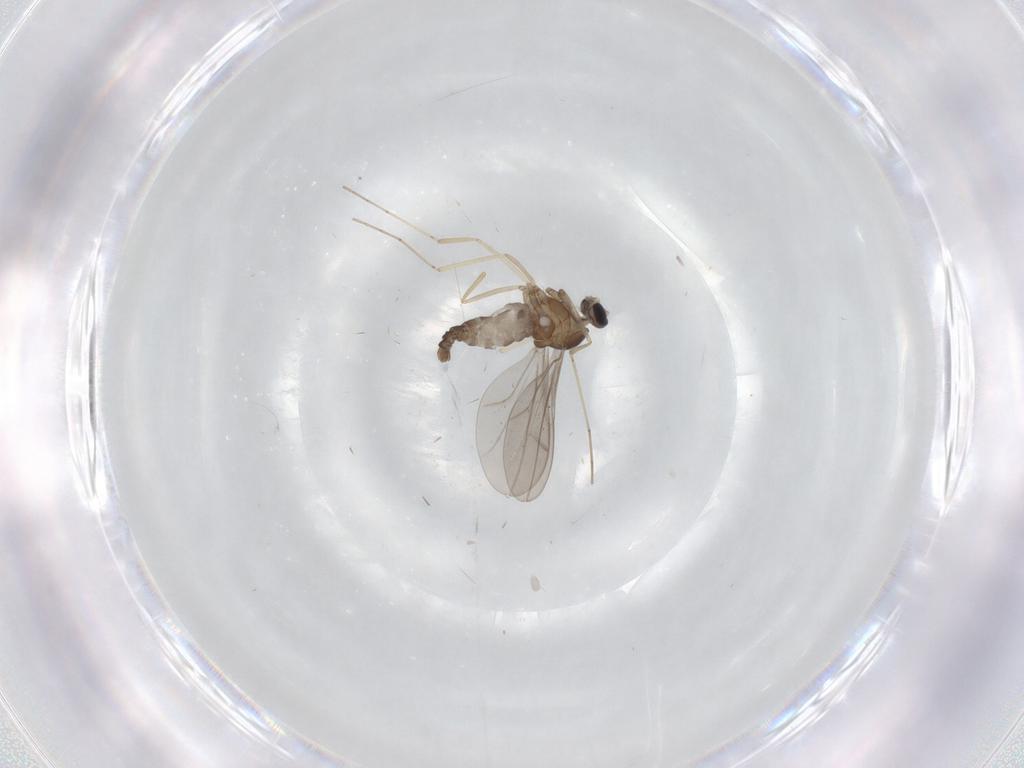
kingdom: Animalia
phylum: Arthropoda
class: Insecta
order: Diptera
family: Cecidomyiidae
